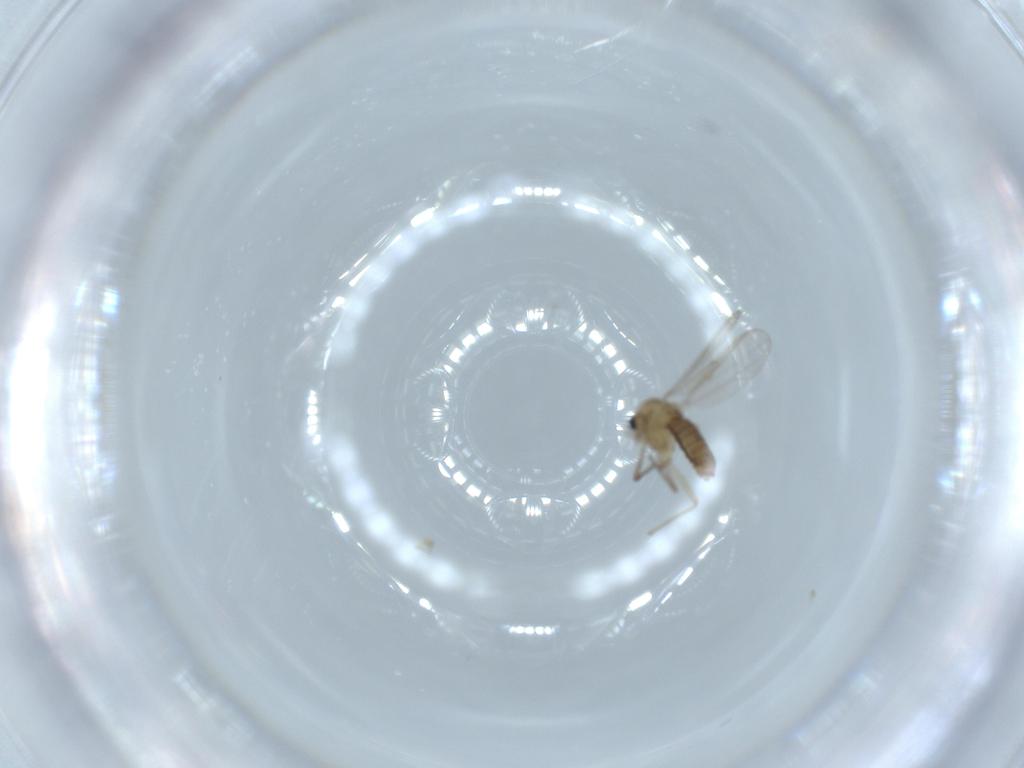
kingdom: Animalia
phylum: Arthropoda
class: Insecta
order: Diptera
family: Chironomidae
